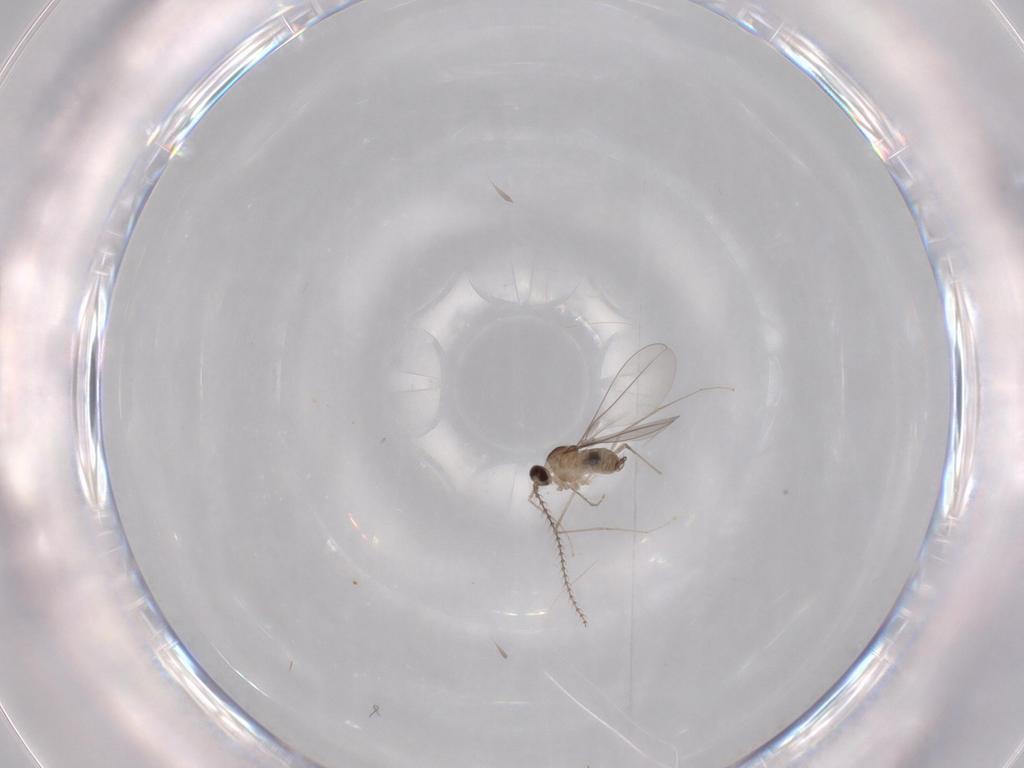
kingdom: Animalia
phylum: Arthropoda
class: Insecta
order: Diptera
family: Cecidomyiidae
